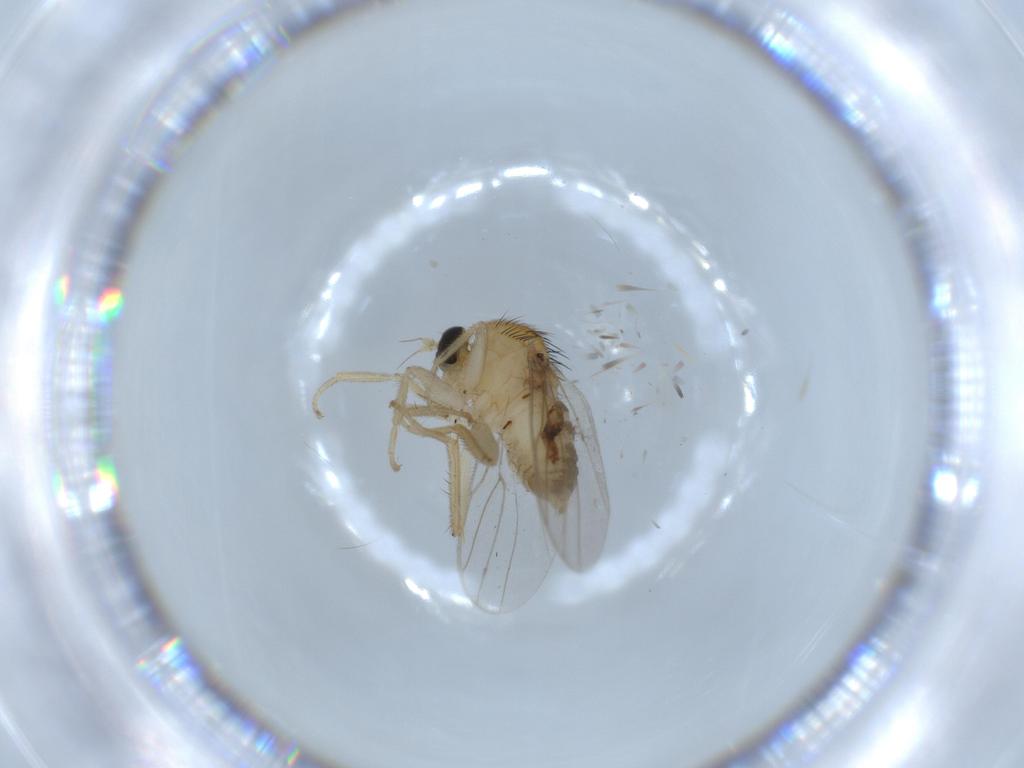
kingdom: Animalia
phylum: Arthropoda
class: Insecta
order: Diptera
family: Hybotidae
